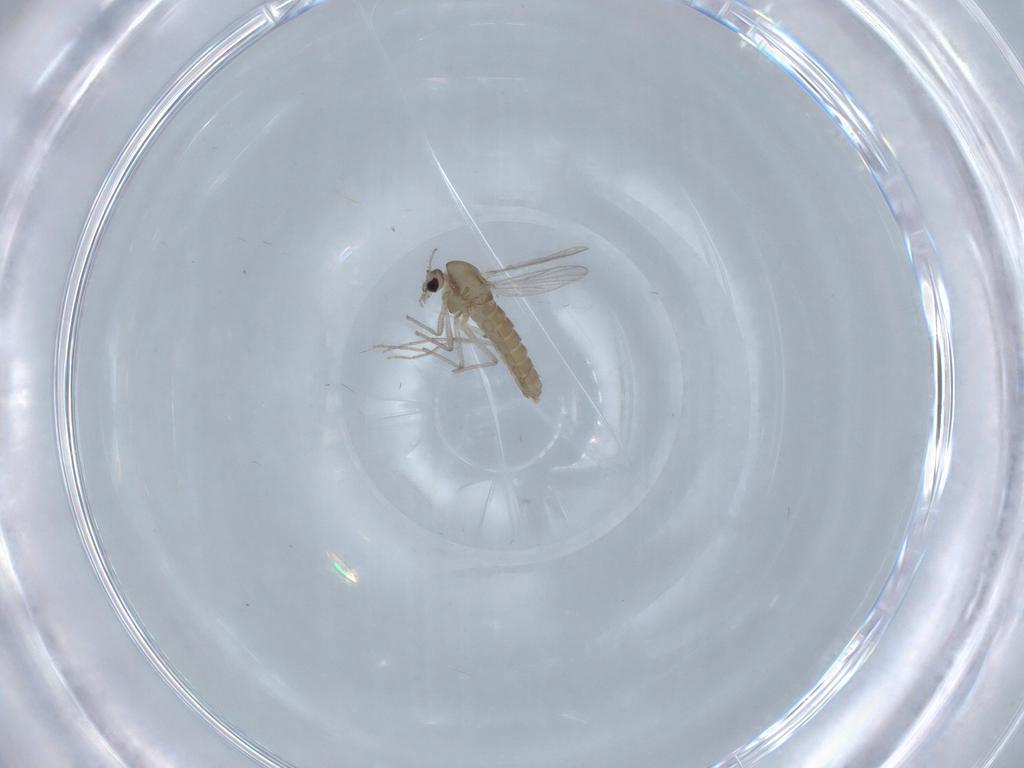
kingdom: Animalia
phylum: Arthropoda
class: Insecta
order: Diptera
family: Chironomidae
